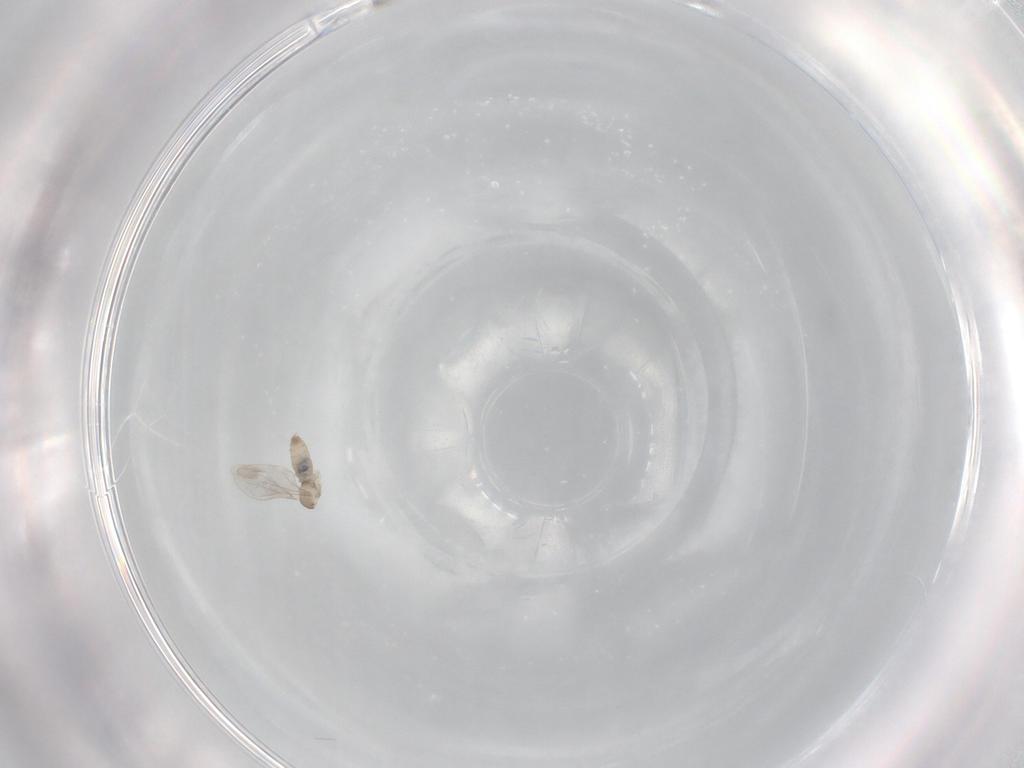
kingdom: Animalia
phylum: Arthropoda
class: Insecta
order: Diptera
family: Cecidomyiidae
